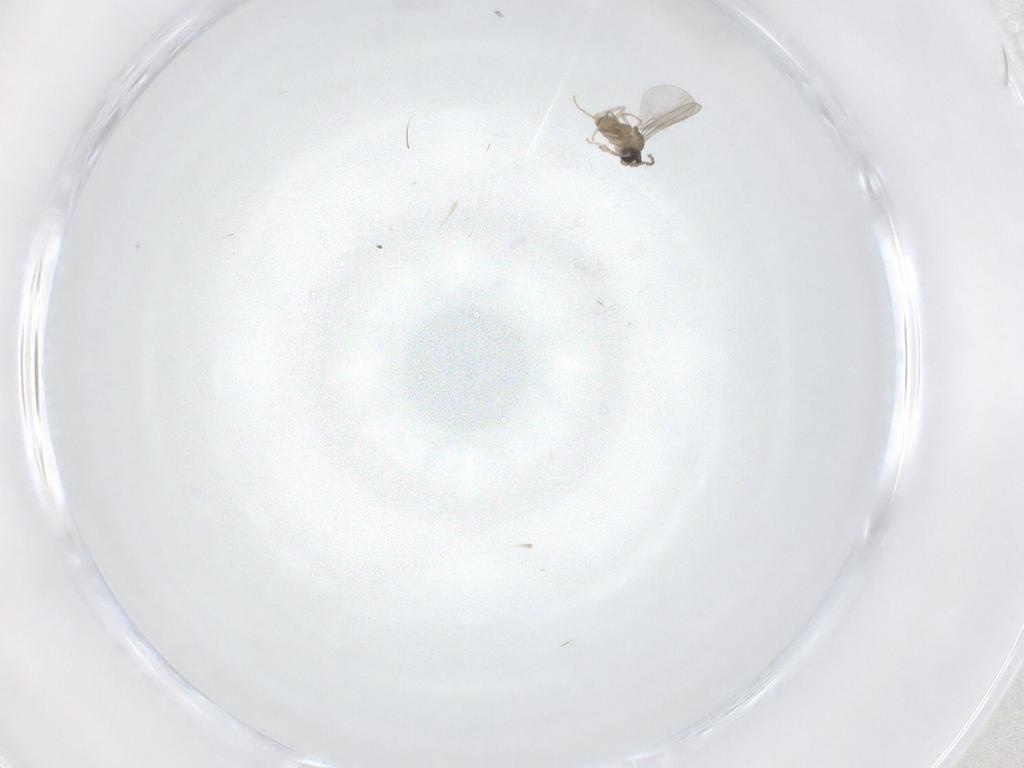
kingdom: Animalia
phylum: Arthropoda
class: Insecta
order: Diptera
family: Cecidomyiidae
